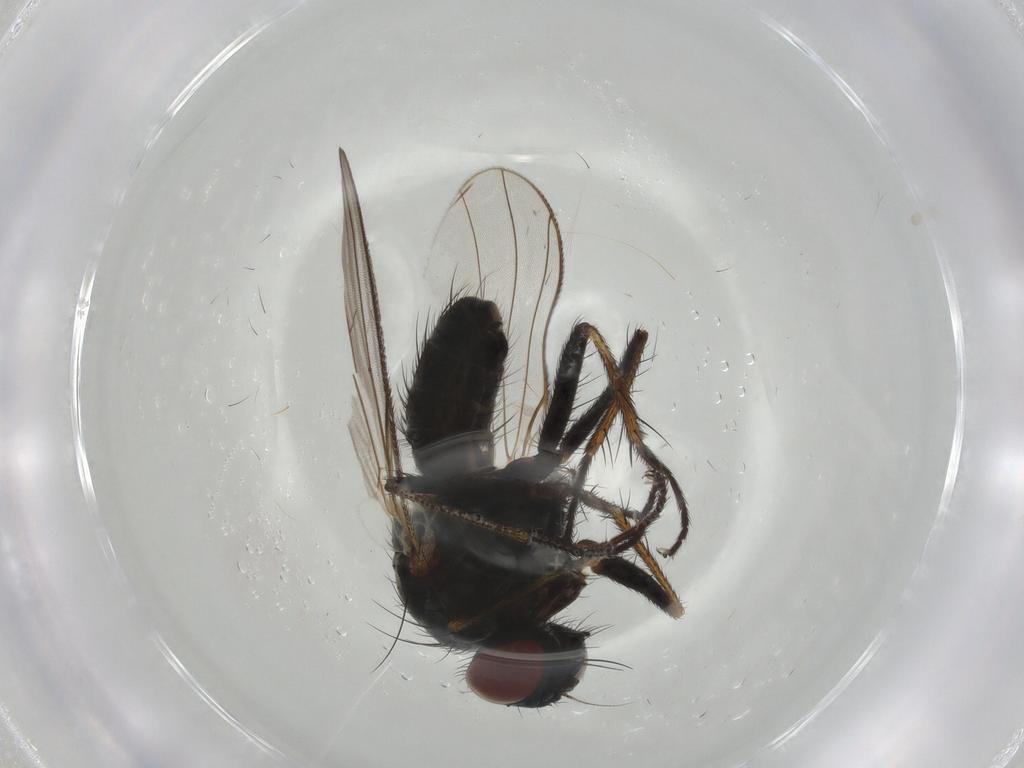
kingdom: Animalia
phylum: Arthropoda
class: Insecta
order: Diptera
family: Muscidae
